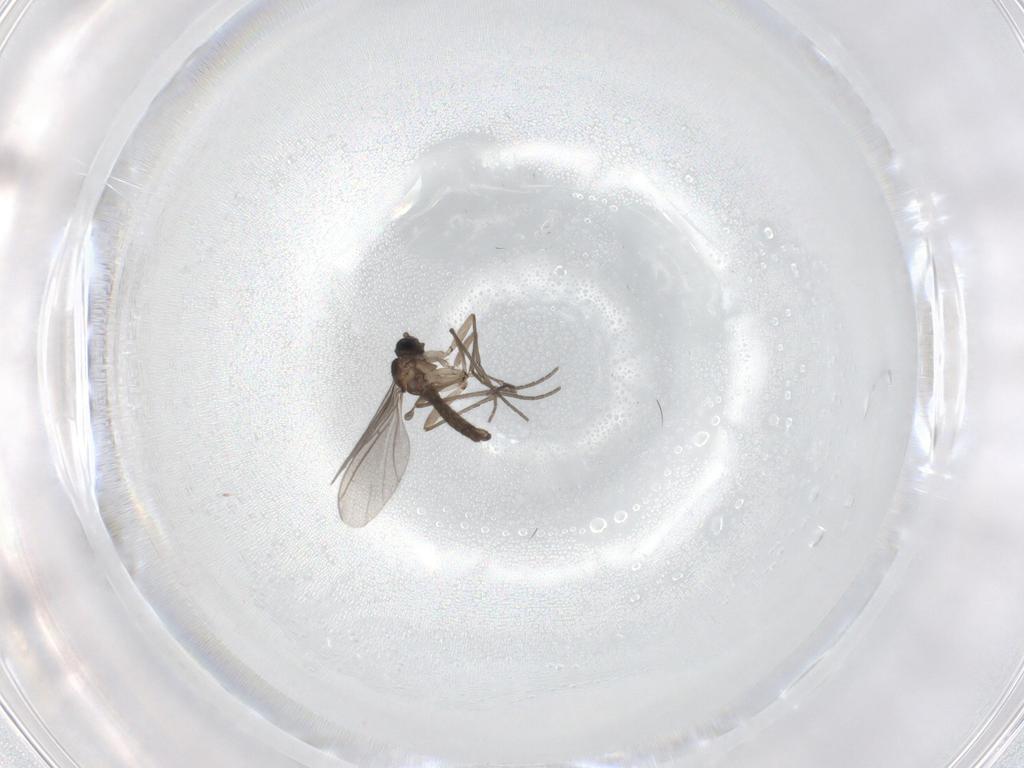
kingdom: Animalia
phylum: Arthropoda
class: Insecta
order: Diptera
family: Sciaridae
